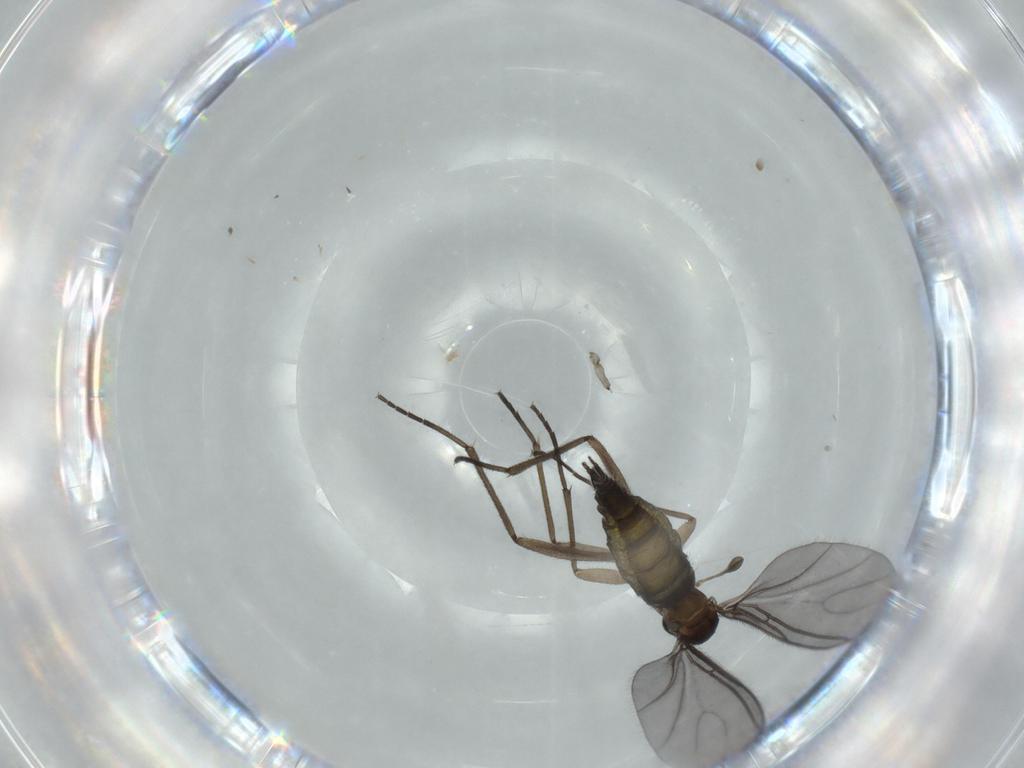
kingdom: Animalia
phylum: Arthropoda
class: Insecta
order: Diptera
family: Sciaridae
